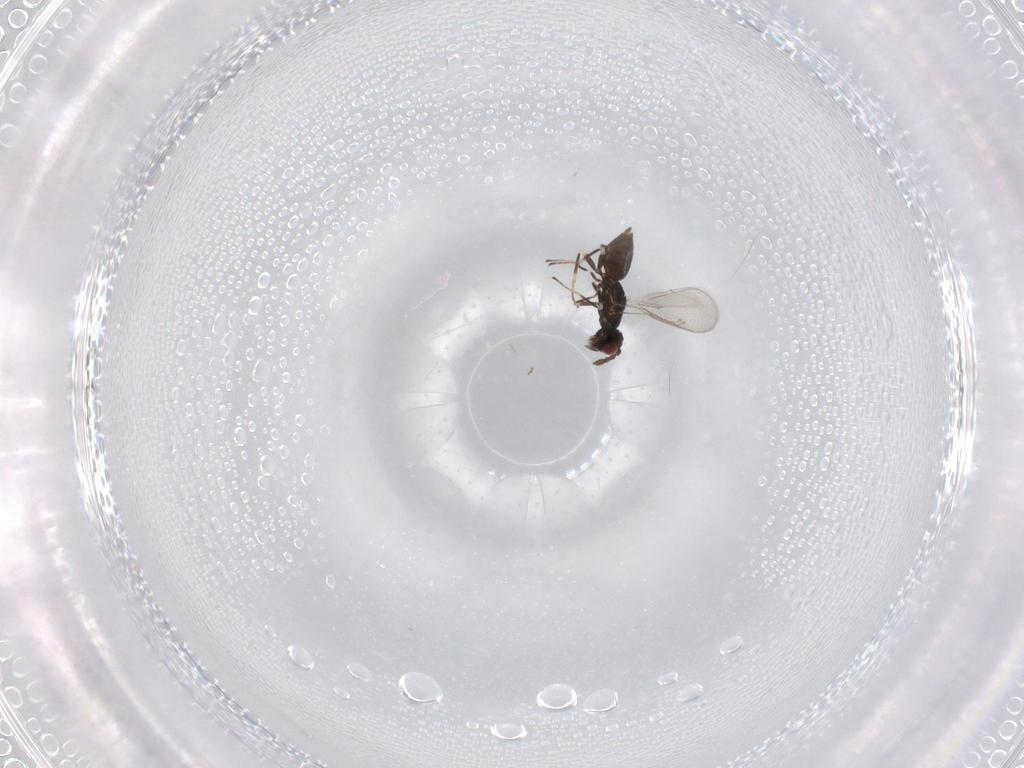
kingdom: Animalia
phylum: Arthropoda
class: Insecta
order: Hymenoptera
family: Eulophidae
